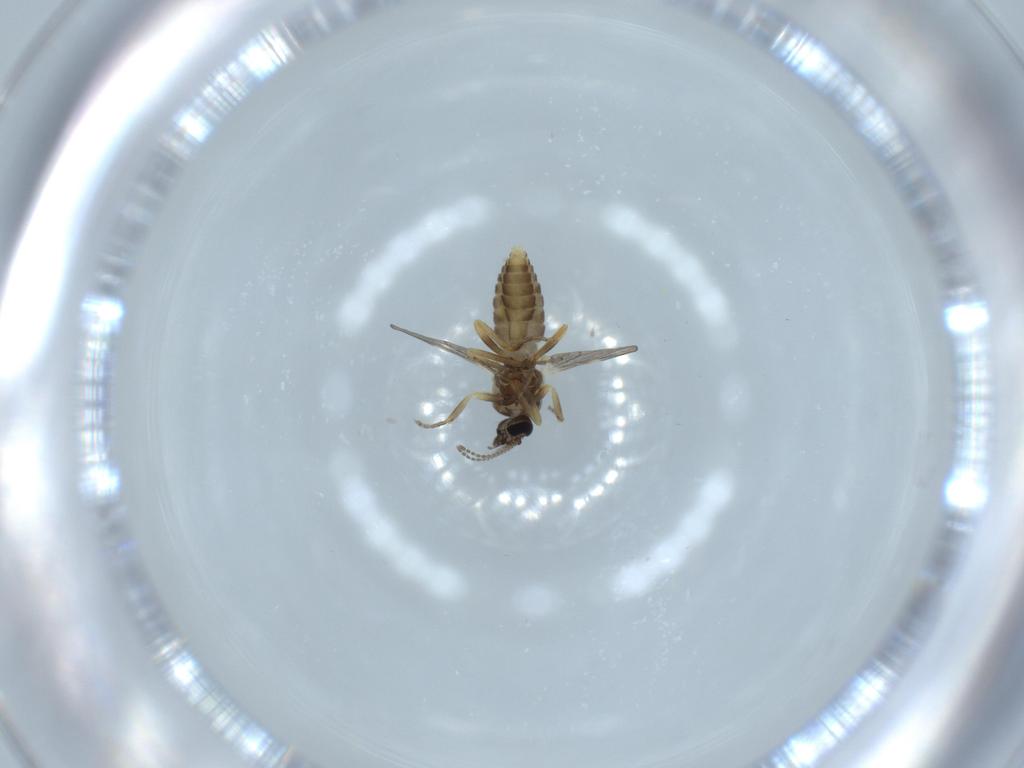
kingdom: Animalia
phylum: Arthropoda
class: Insecta
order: Diptera
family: Ceratopogonidae
